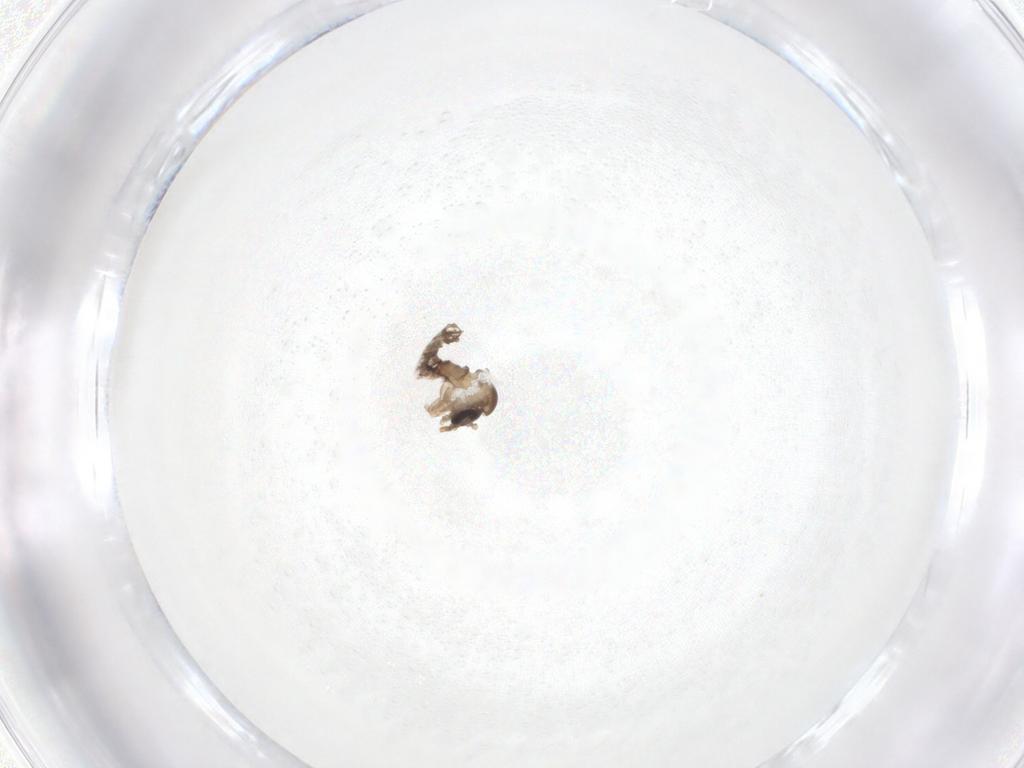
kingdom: Animalia
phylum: Arthropoda
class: Insecta
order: Diptera
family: Psychodidae
